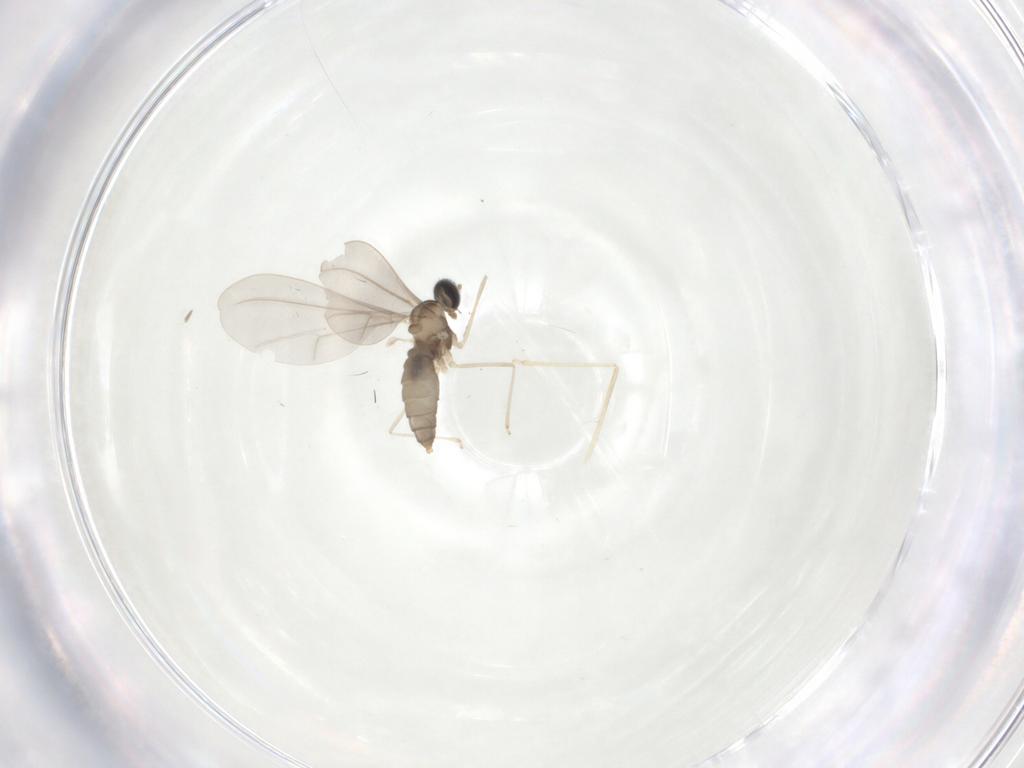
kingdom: Animalia
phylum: Arthropoda
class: Insecta
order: Diptera
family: Cecidomyiidae
